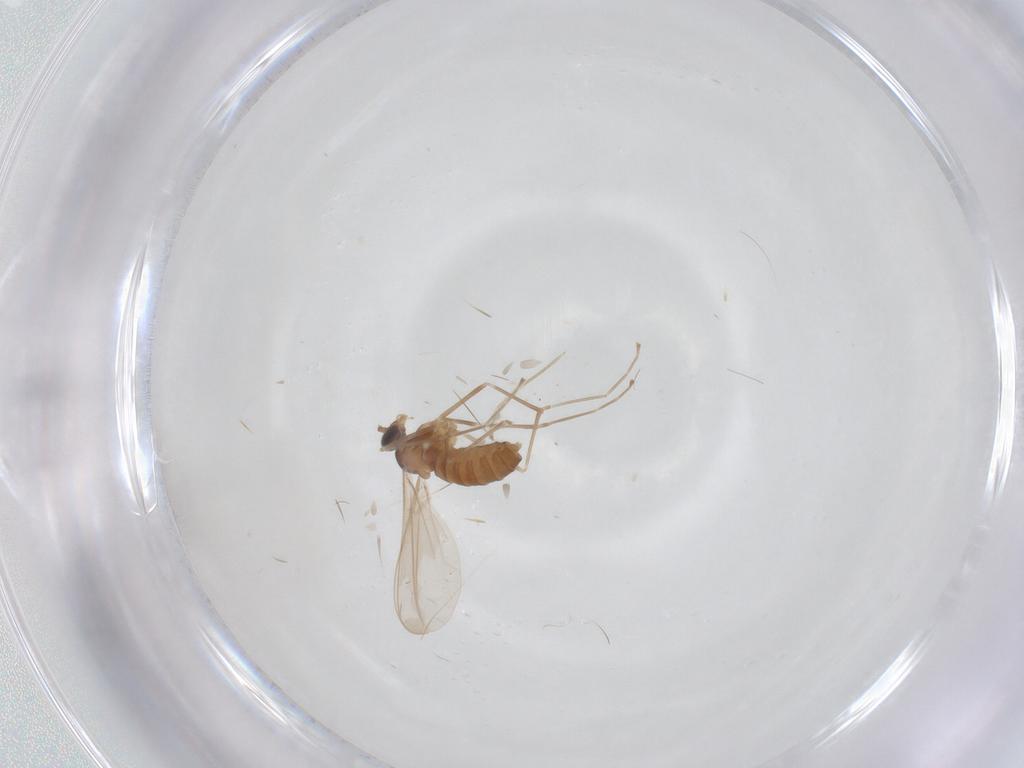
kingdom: Animalia
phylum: Arthropoda
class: Insecta
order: Diptera
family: Cecidomyiidae
